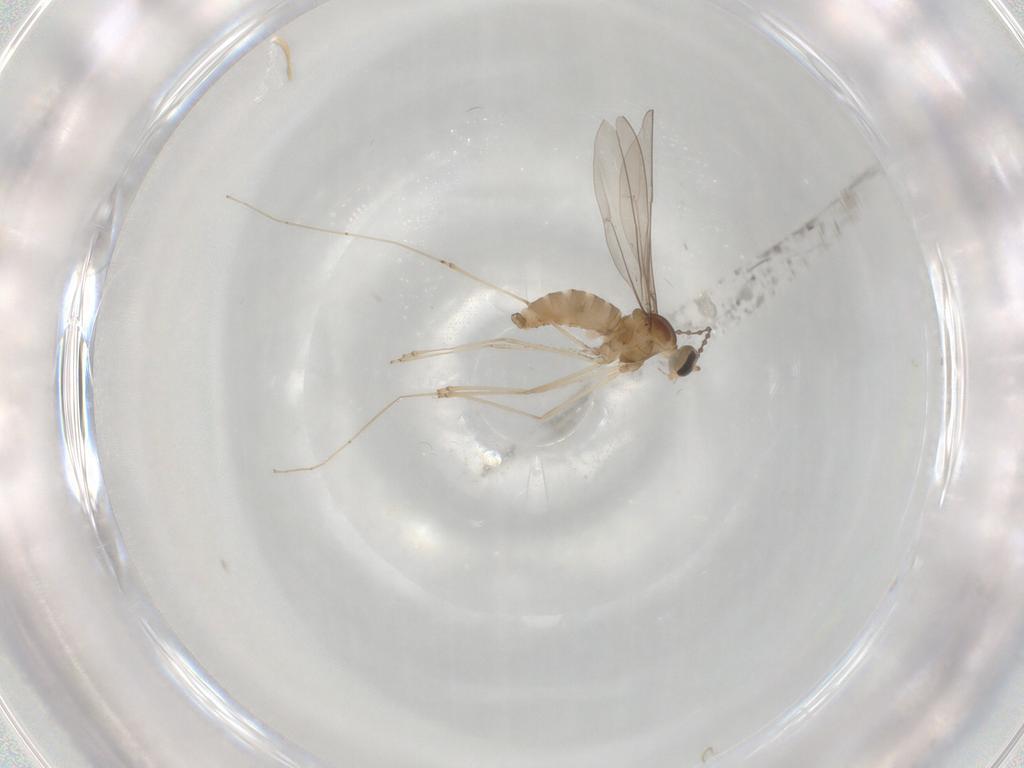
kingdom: Animalia
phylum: Arthropoda
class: Insecta
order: Diptera
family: Cecidomyiidae
